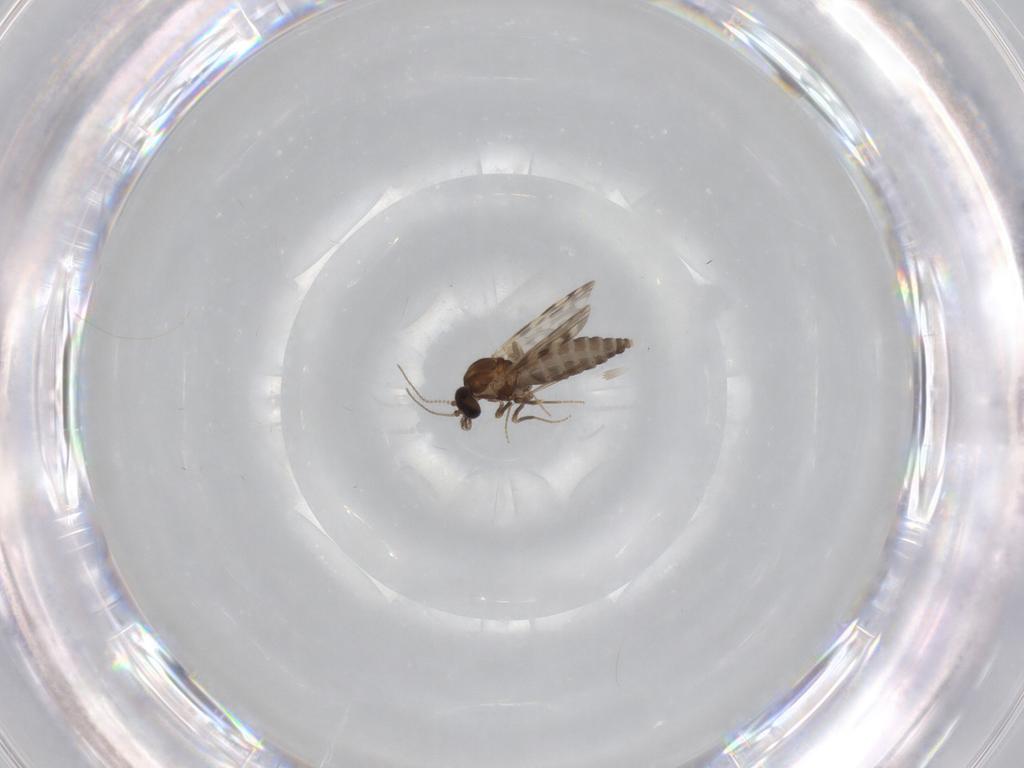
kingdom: Animalia
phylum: Arthropoda
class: Insecta
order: Diptera
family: Ceratopogonidae
